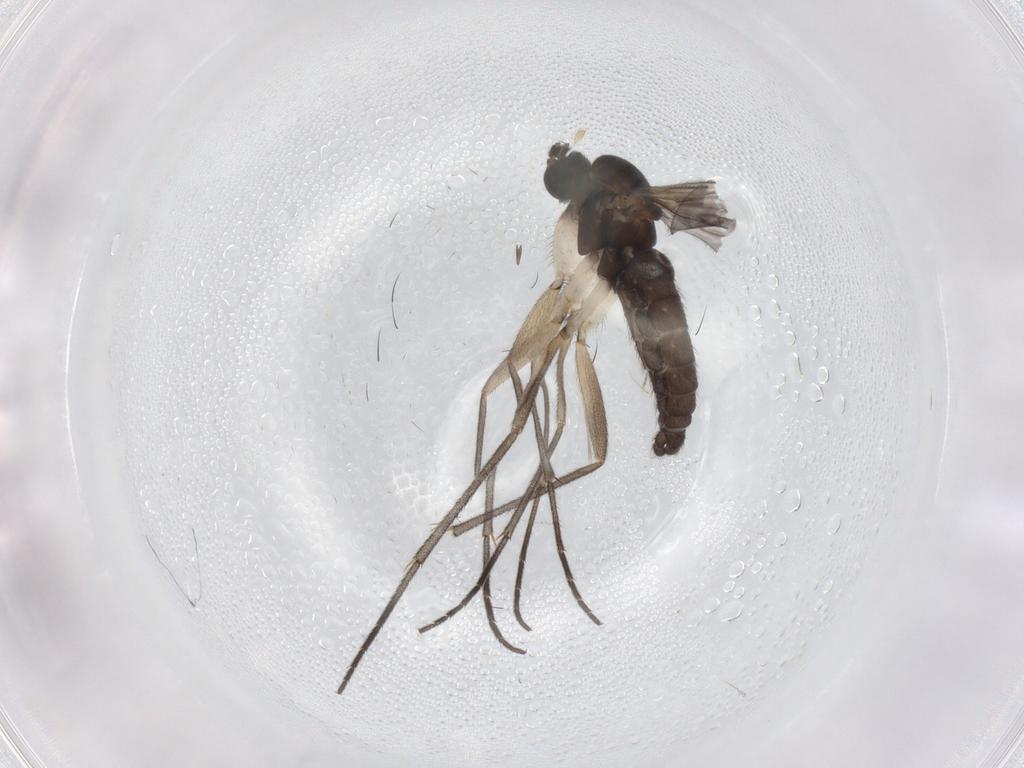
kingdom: Animalia
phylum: Arthropoda
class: Insecta
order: Diptera
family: Sciaridae
